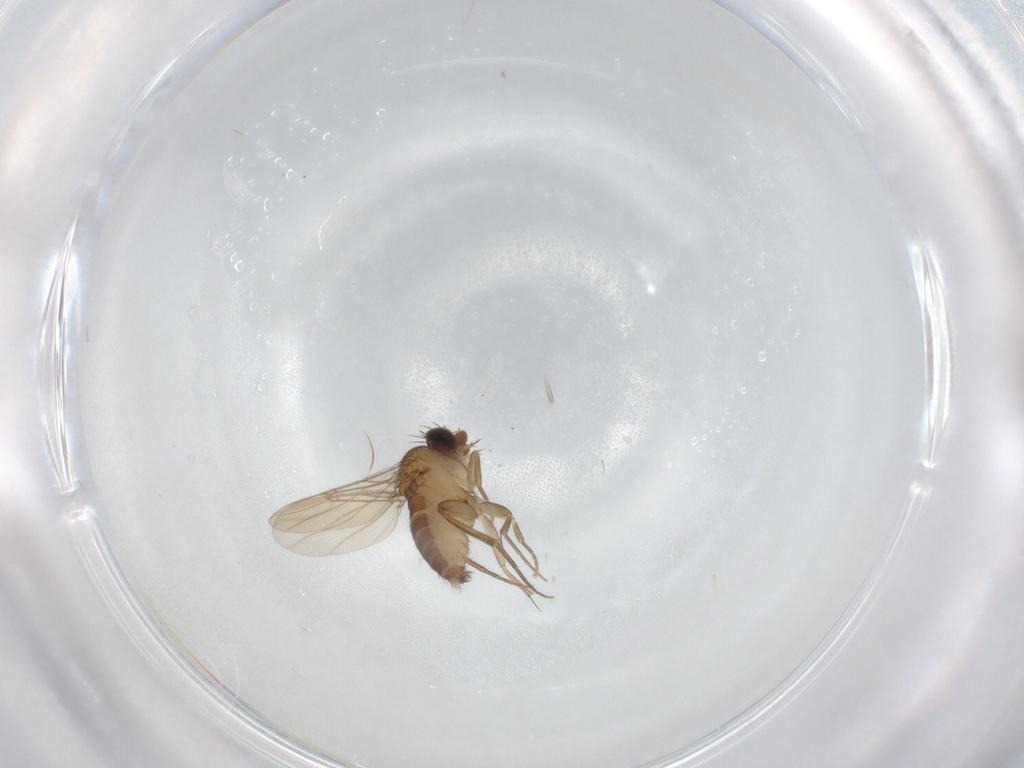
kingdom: Animalia
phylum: Arthropoda
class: Insecta
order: Diptera
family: Phoridae
